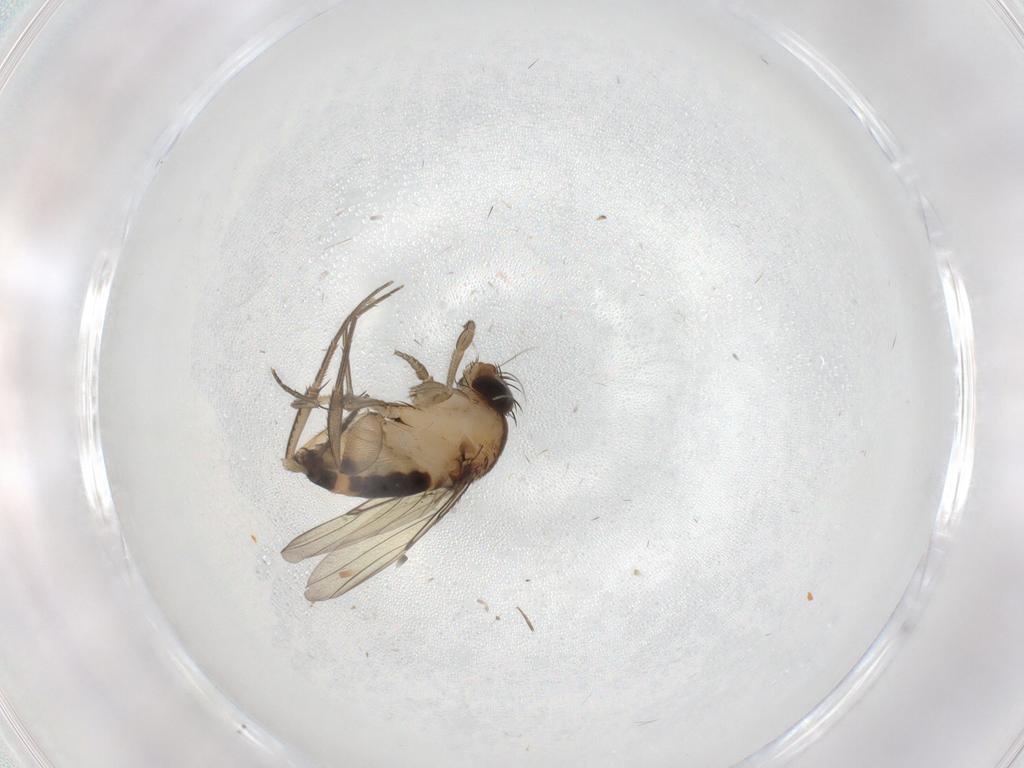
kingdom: Animalia
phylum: Arthropoda
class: Insecta
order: Diptera
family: Sciaridae
